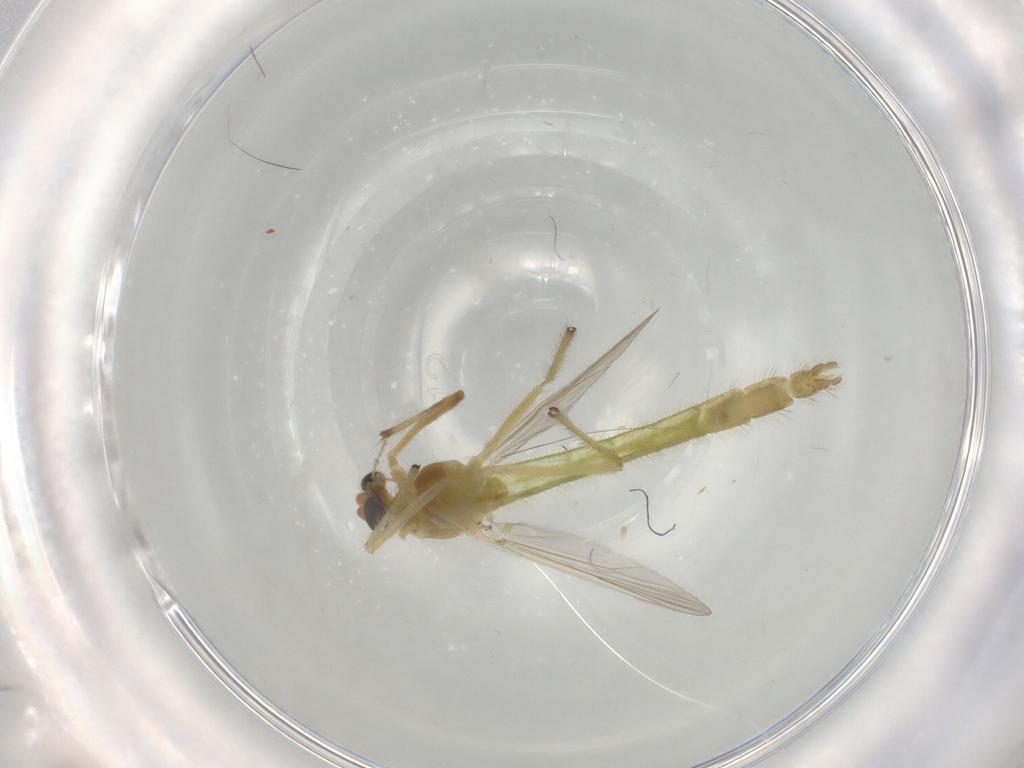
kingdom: Animalia
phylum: Arthropoda
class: Insecta
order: Diptera
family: Chironomidae
